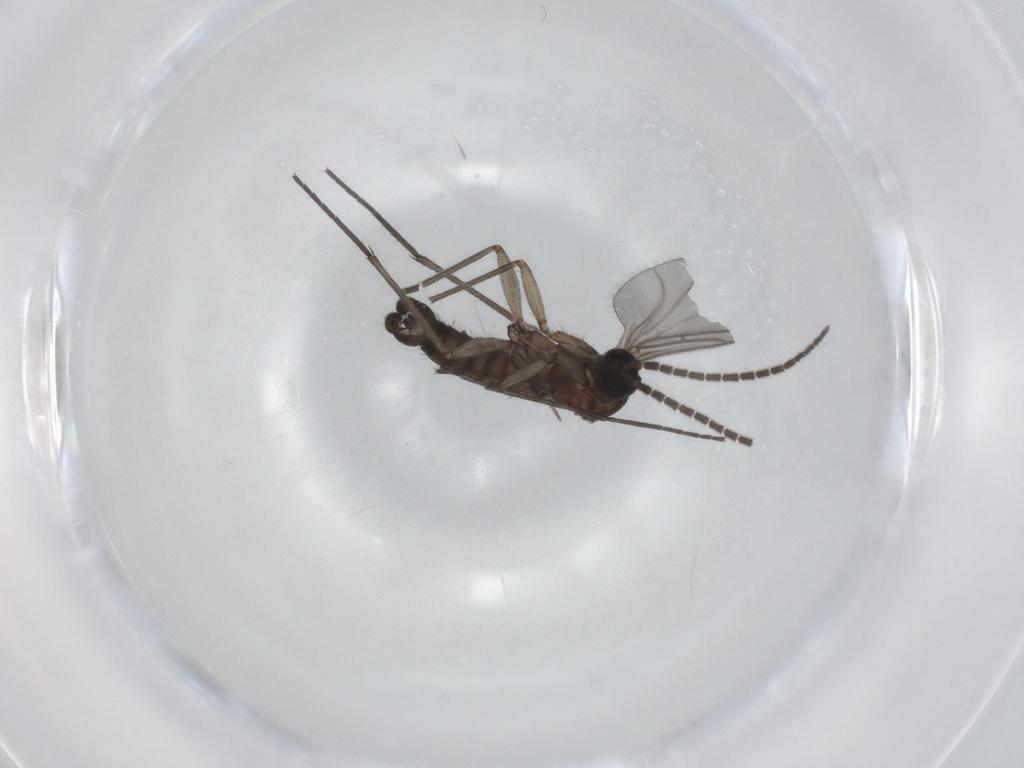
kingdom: Animalia
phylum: Arthropoda
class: Insecta
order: Diptera
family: Sciaridae
